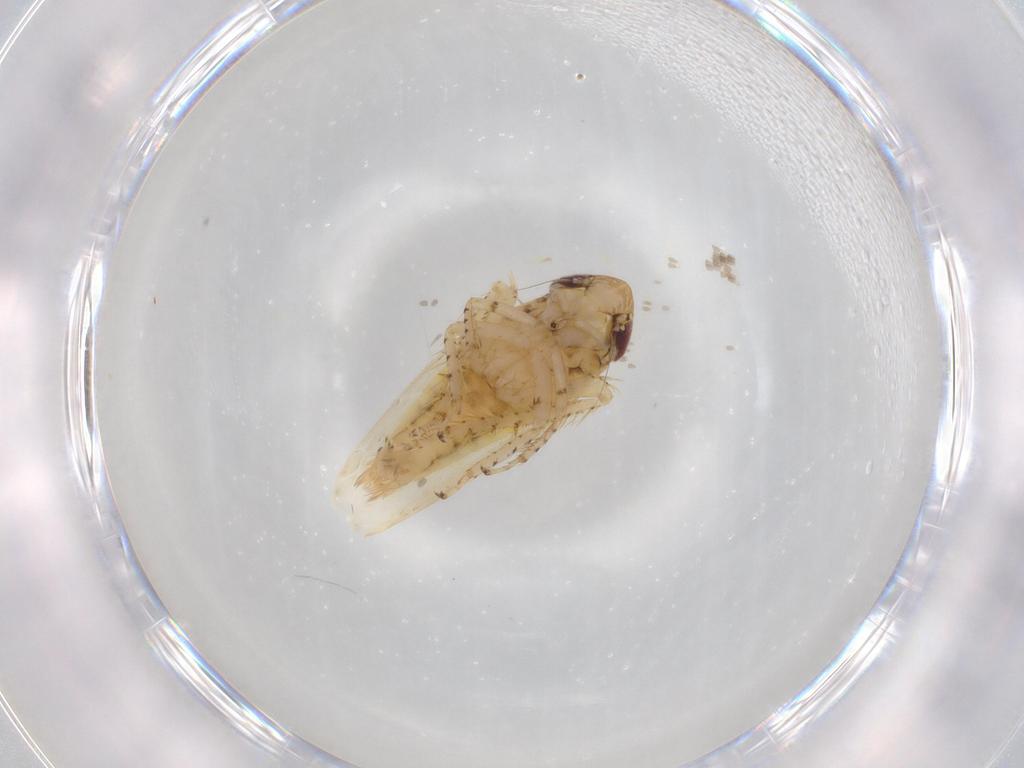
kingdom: Animalia
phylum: Arthropoda
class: Insecta
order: Hemiptera
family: Cicadellidae
